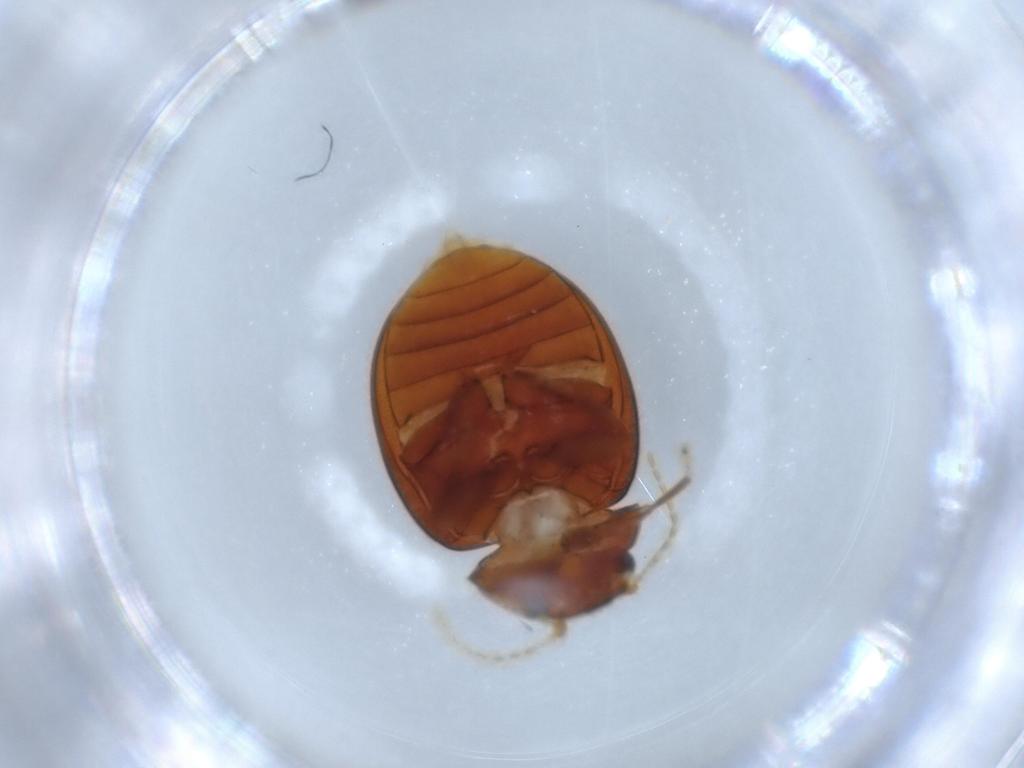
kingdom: Animalia
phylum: Arthropoda
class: Insecta
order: Coleoptera
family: Scirtidae
